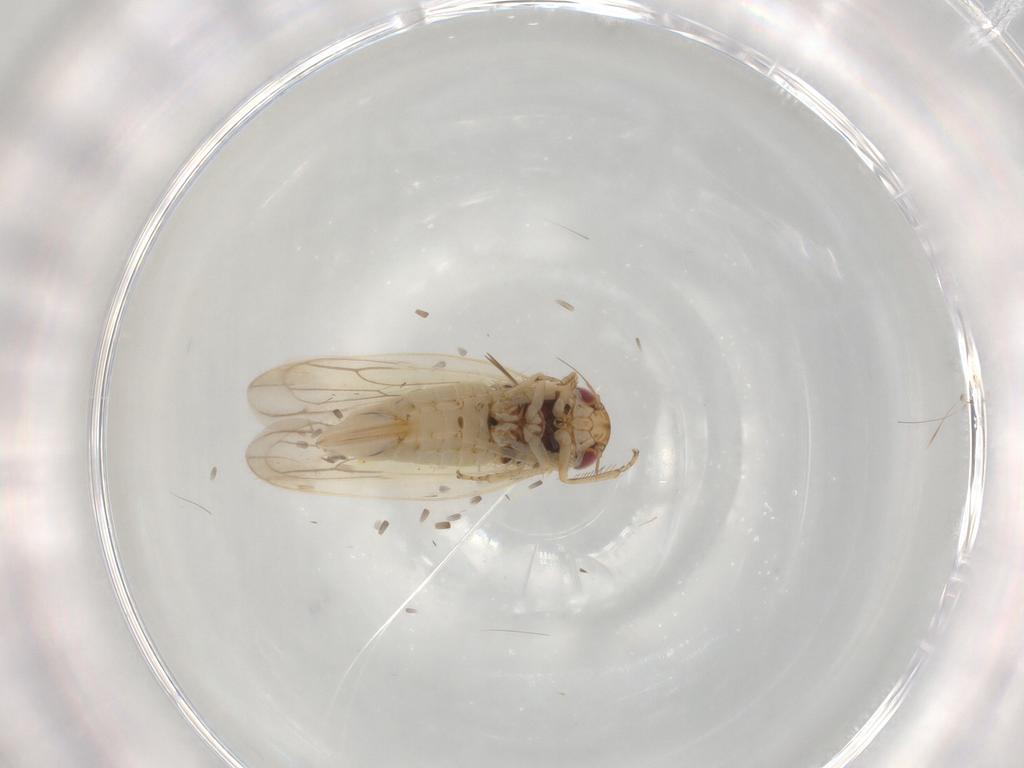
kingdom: Animalia
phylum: Arthropoda
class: Insecta
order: Hemiptera
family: Cicadellidae
